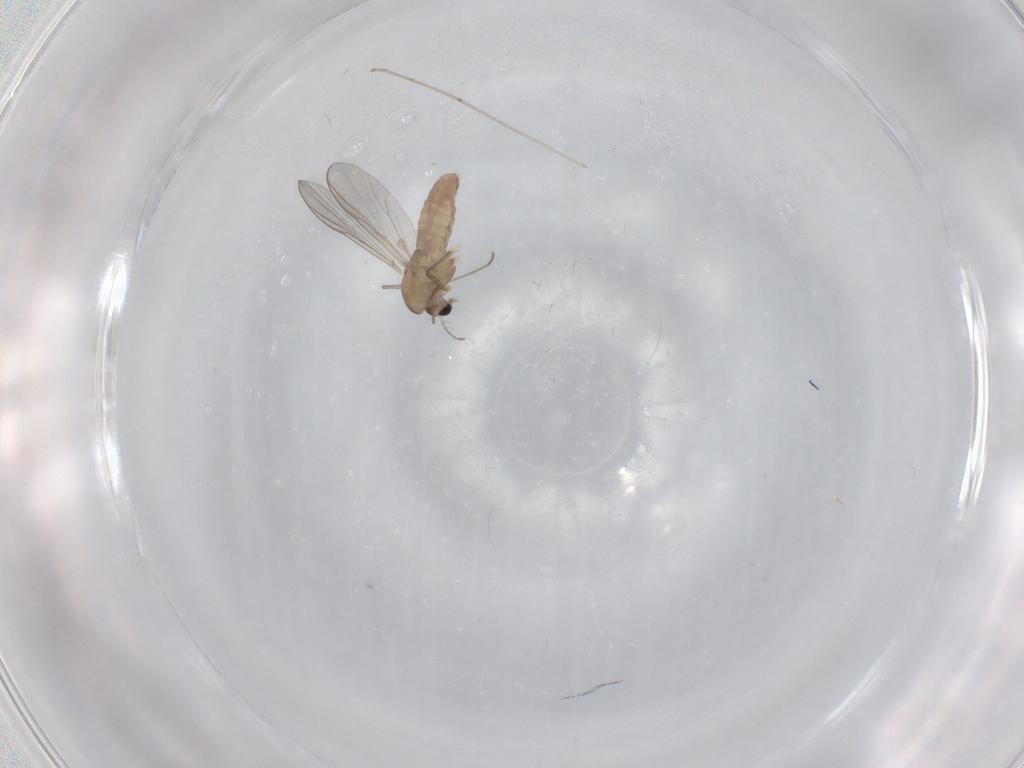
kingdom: Animalia
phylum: Arthropoda
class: Insecta
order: Diptera
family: Chironomidae
